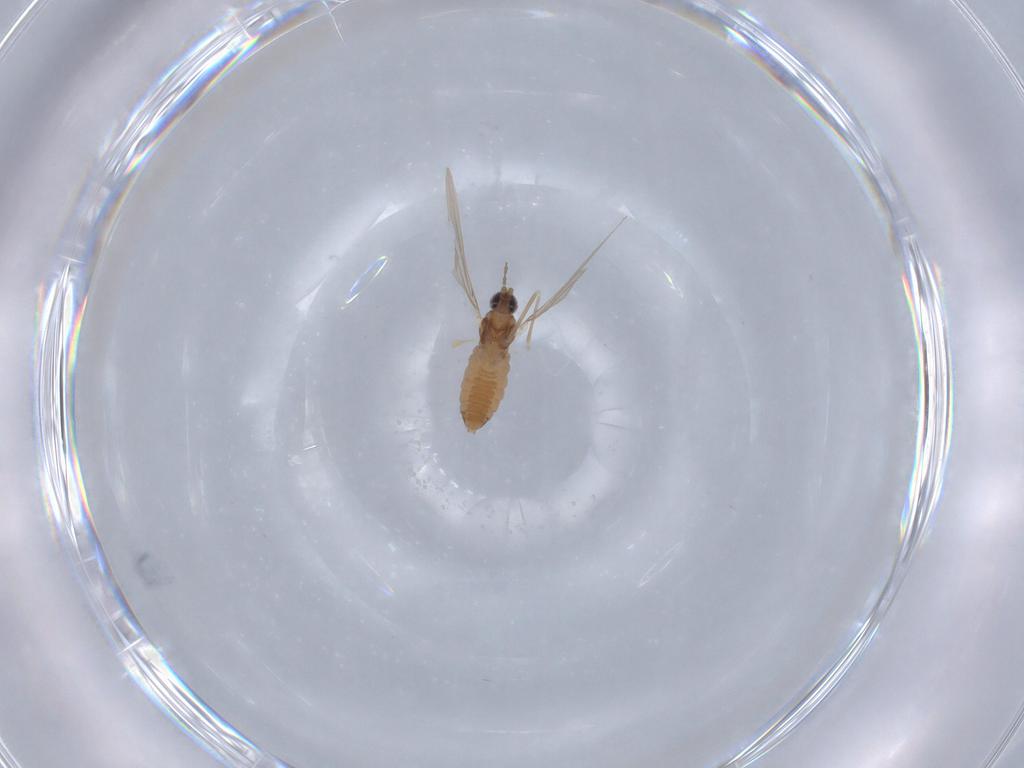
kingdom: Animalia
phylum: Arthropoda
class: Insecta
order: Diptera
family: Cecidomyiidae
